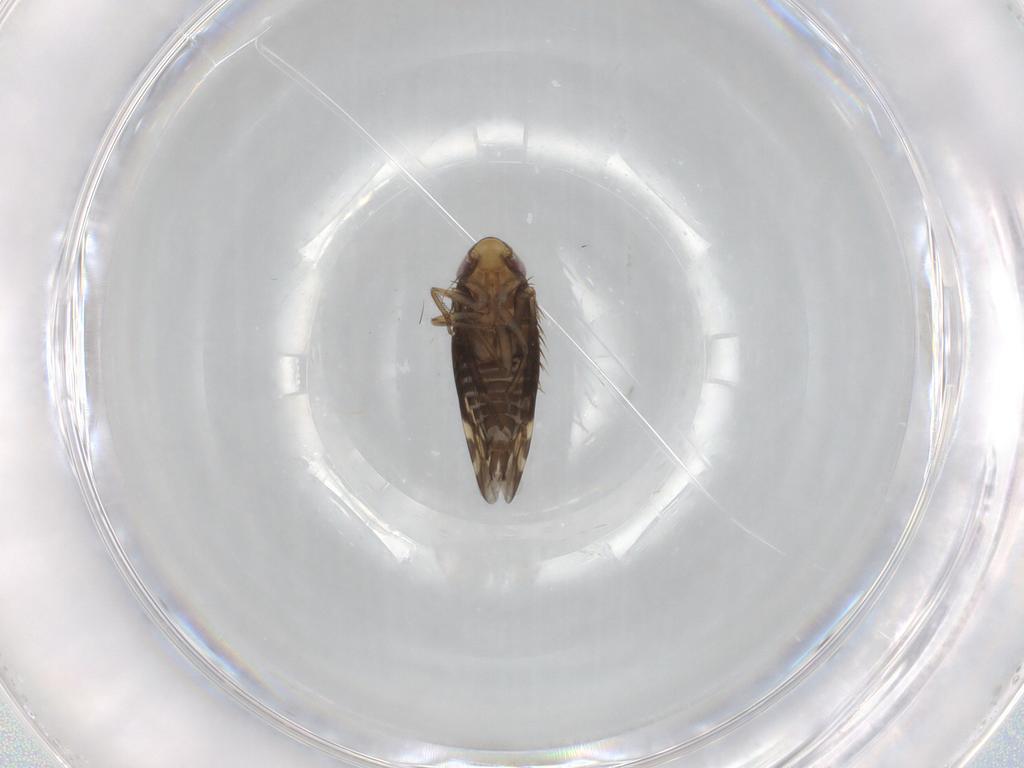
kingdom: Animalia
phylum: Arthropoda
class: Insecta
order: Hemiptera
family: Cicadellidae
